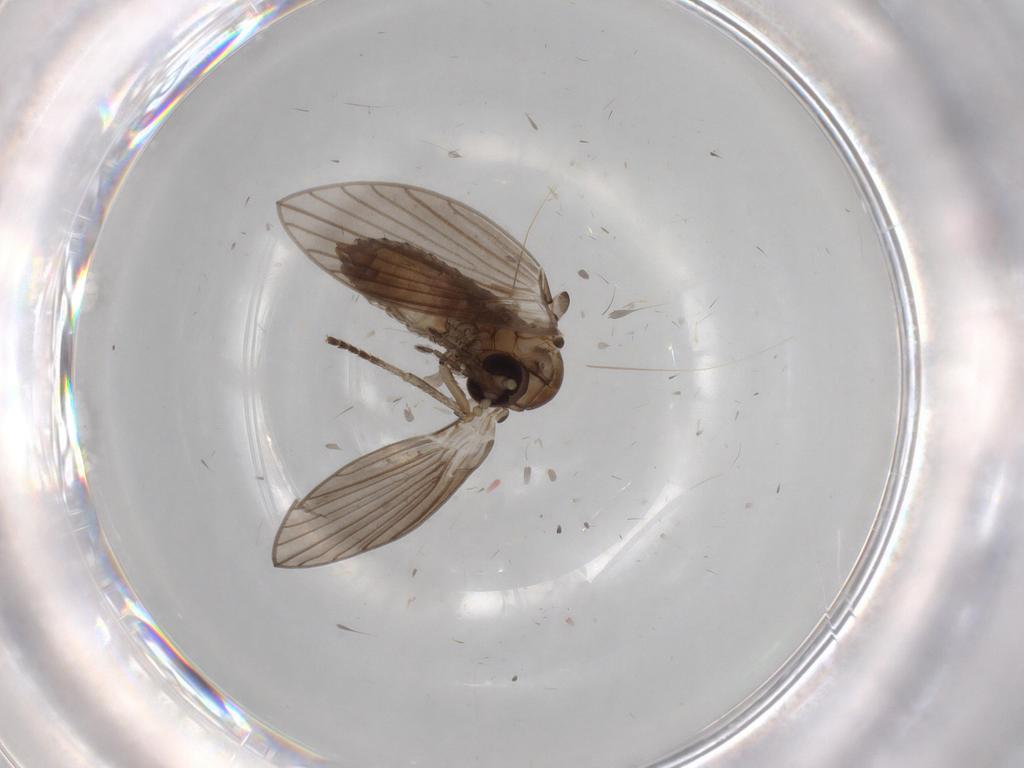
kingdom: Animalia
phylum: Arthropoda
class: Insecta
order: Diptera
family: Psychodidae
